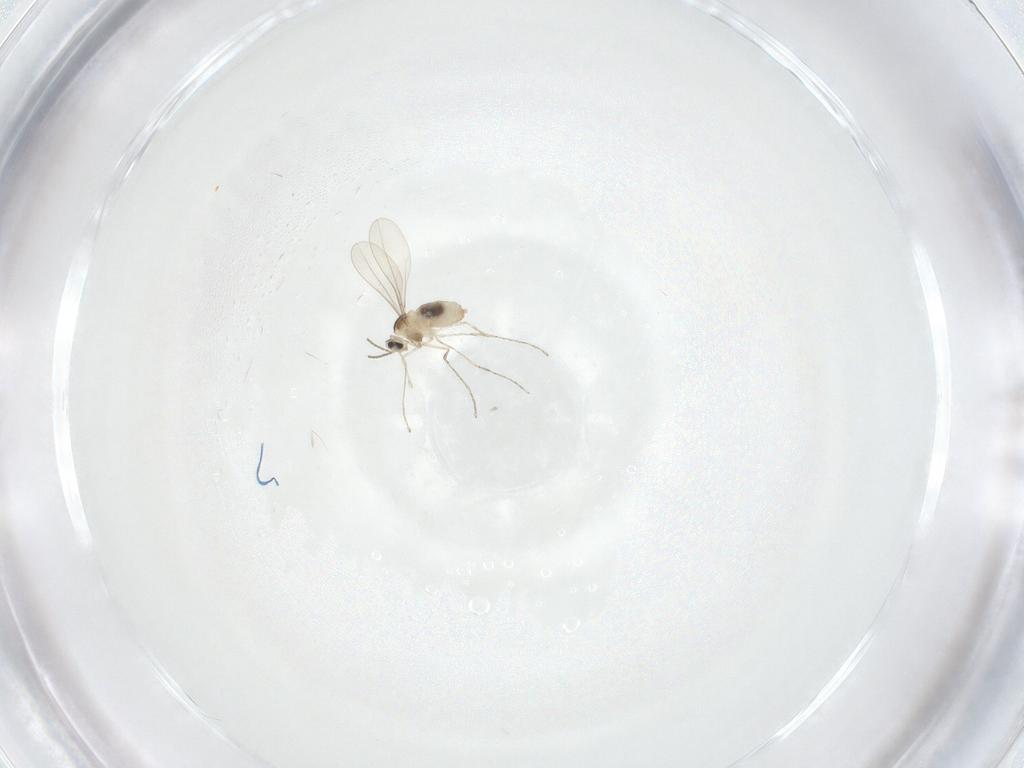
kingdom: Animalia
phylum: Arthropoda
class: Insecta
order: Diptera
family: Cecidomyiidae
